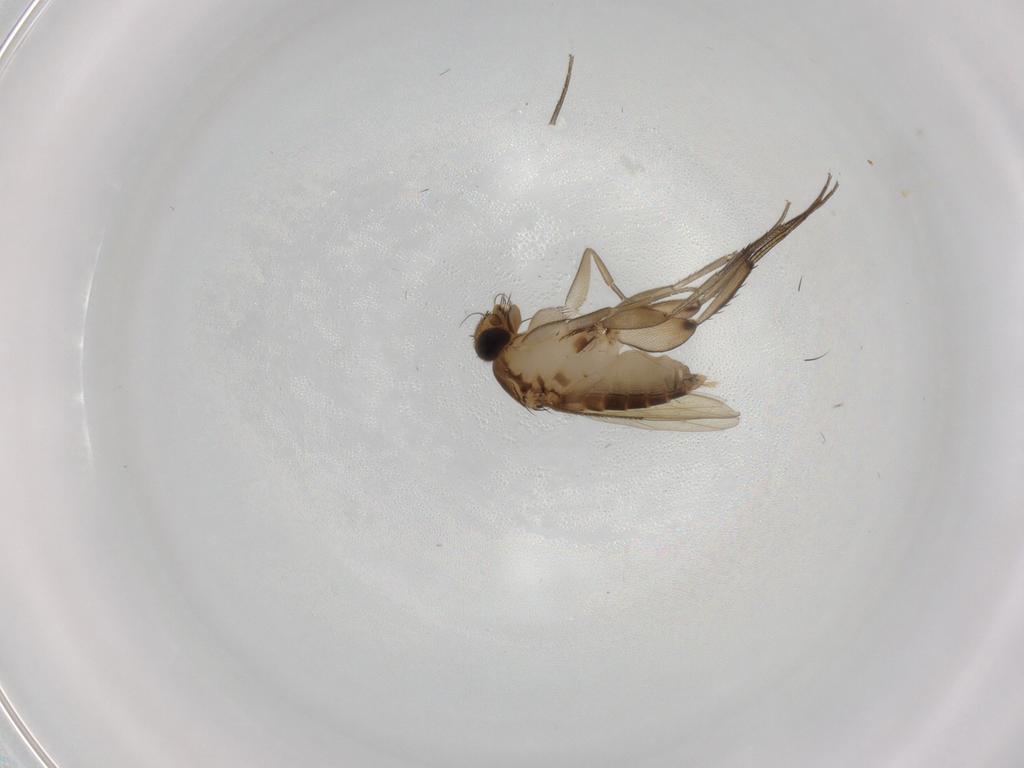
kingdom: Animalia
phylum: Arthropoda
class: Insecta
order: Diptera
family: Phoridae
